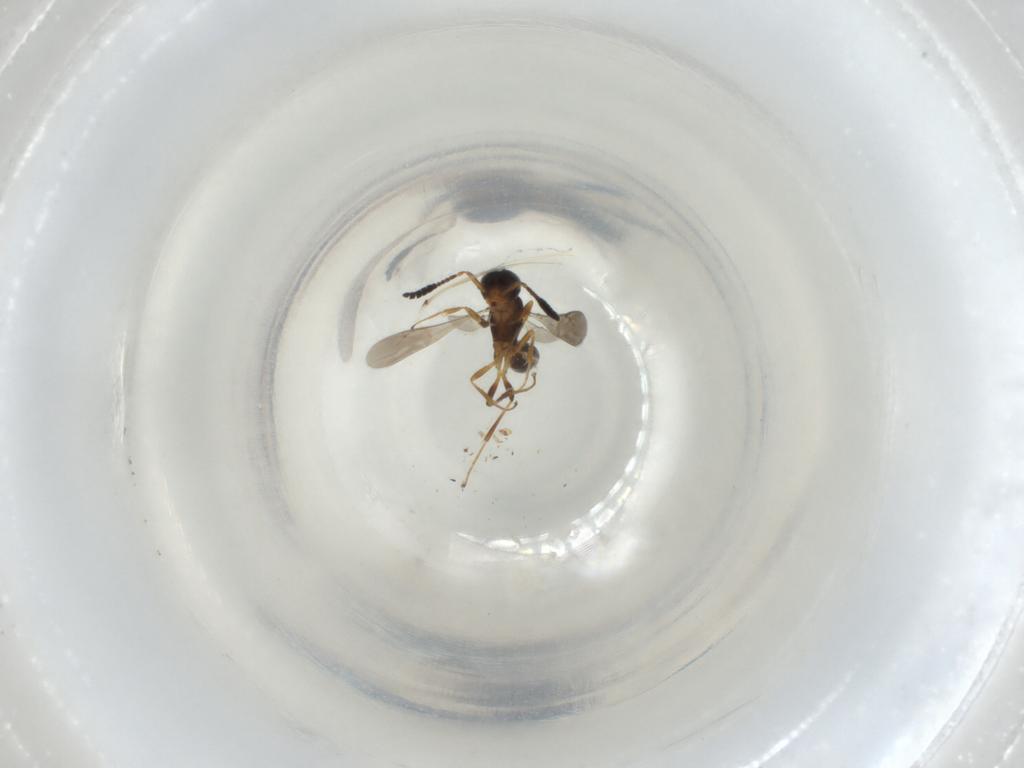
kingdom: Animalia
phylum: Arthropoda
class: Insecta
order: Hymenoptera
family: Scelionidae
